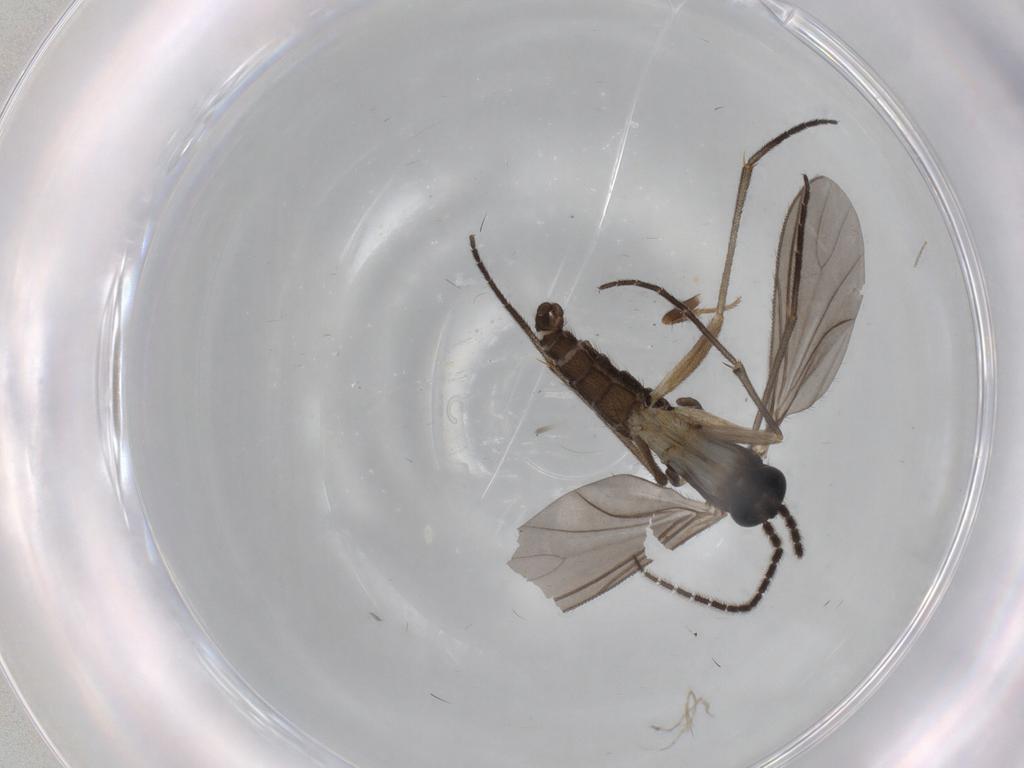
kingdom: Animalia
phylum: Arthropoda
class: Insecta
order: Diptera
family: Sciaridae
